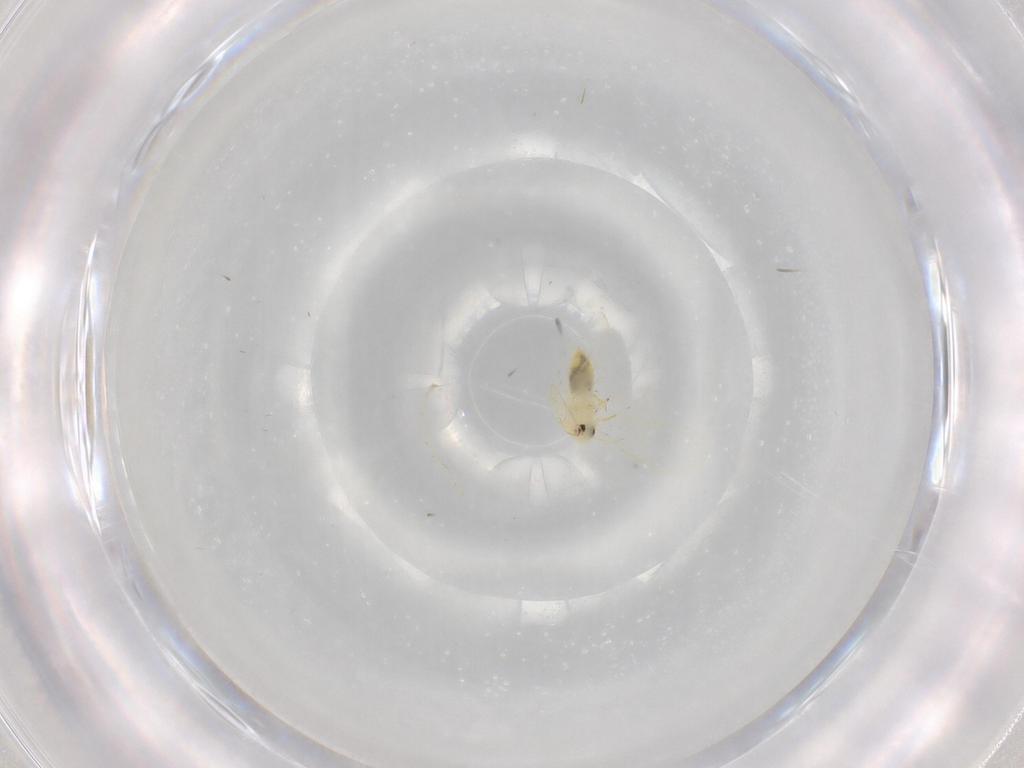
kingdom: Animalia
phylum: Arthropoda
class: Insecta
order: Hemiptera
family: Aleyrodidae
